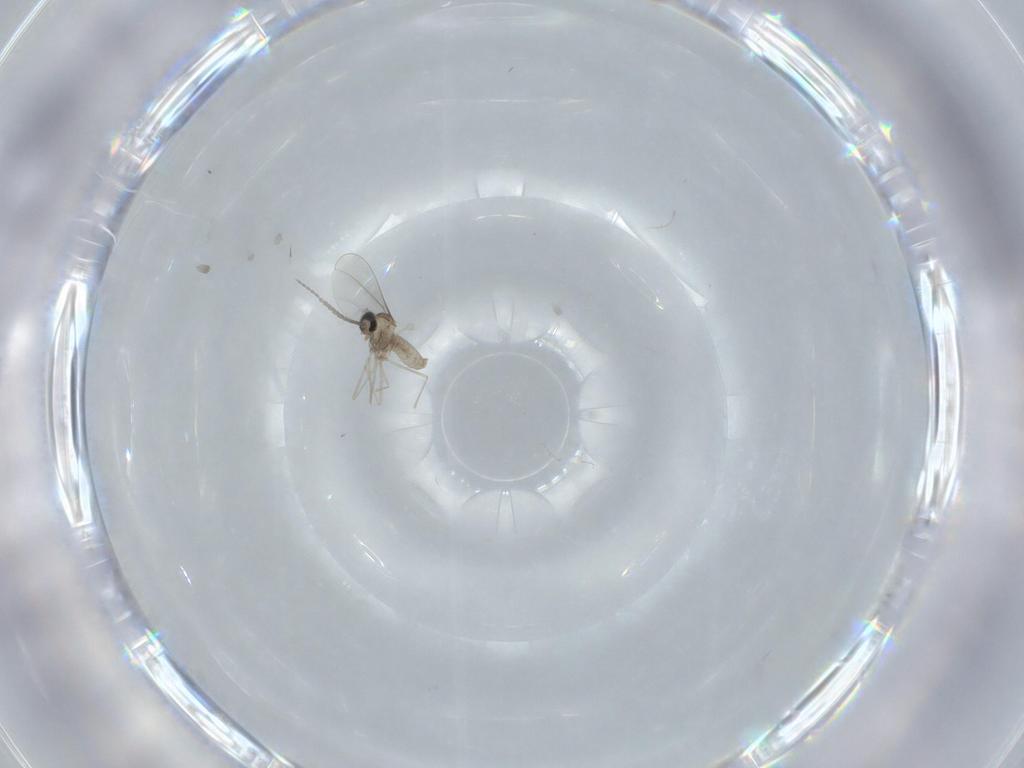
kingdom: Animalia
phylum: Arthropoda
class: Insecta
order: Diptera
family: Cecidomyiidae
